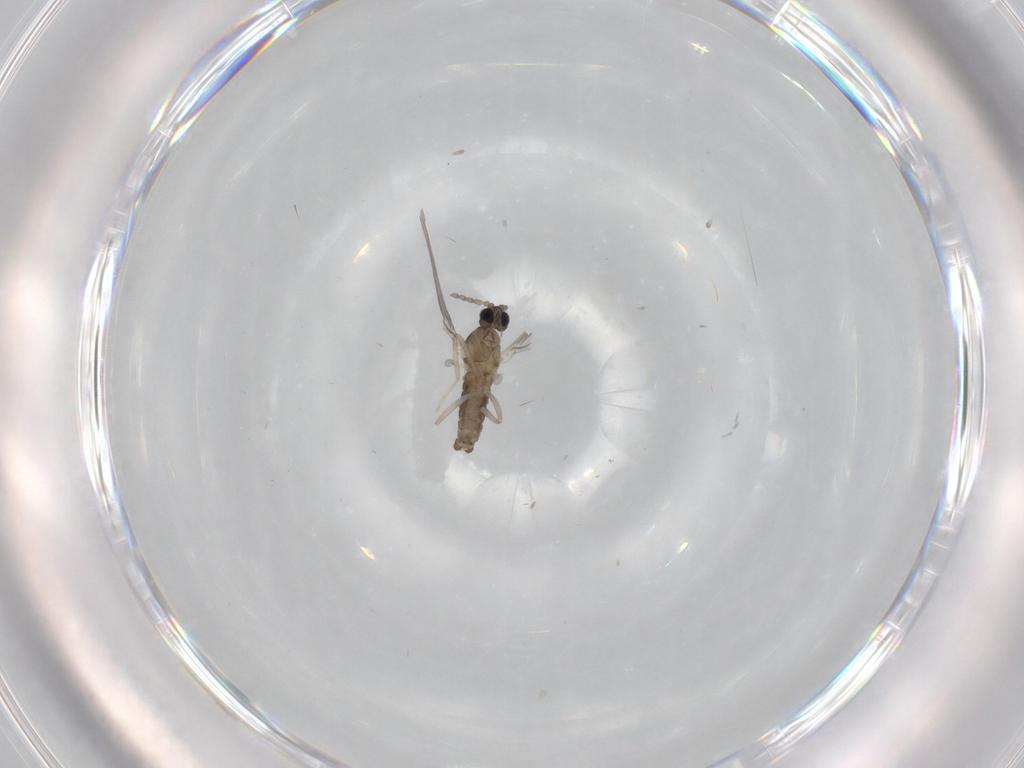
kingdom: Animalia
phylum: Arthropoda
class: Insecta
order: Diptera
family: Cecidomyiidae
